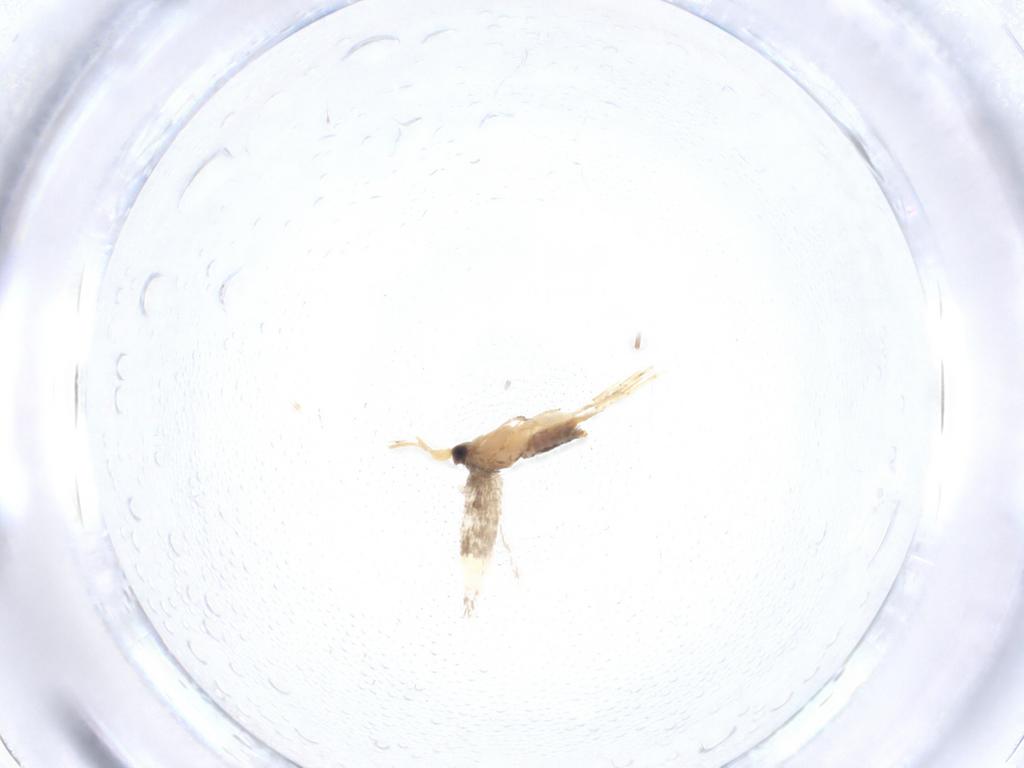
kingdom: Animalia
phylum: Arthropoda
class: Insecta
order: Lepidoptera
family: Nepticulidae
